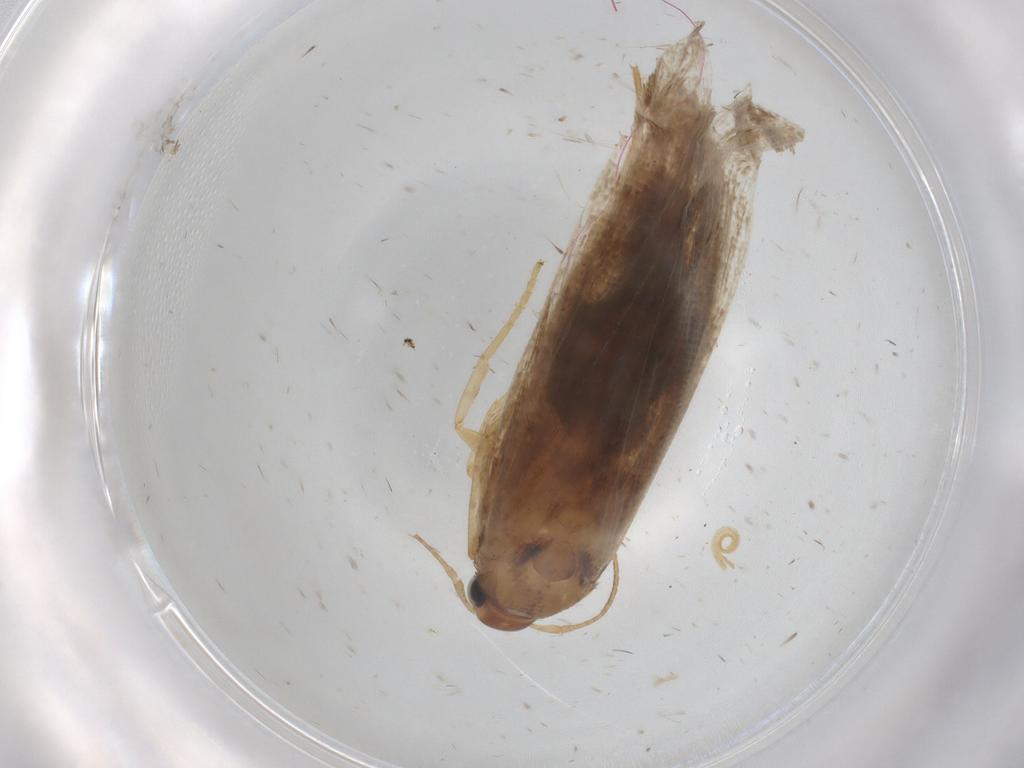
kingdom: Animalia
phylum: Arthropoda
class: Insecta
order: Lepidoptera
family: Gelechiidae
